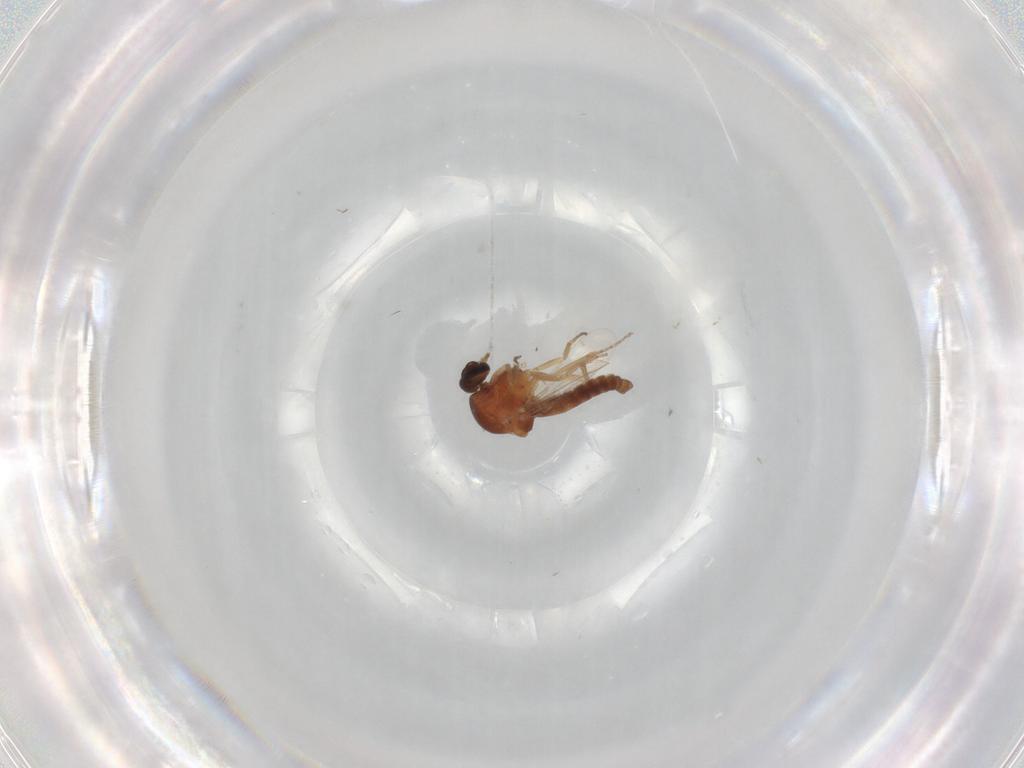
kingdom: Animalia
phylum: Arthropoda
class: Insecta
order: Diptera
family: Ceratopogonidae
